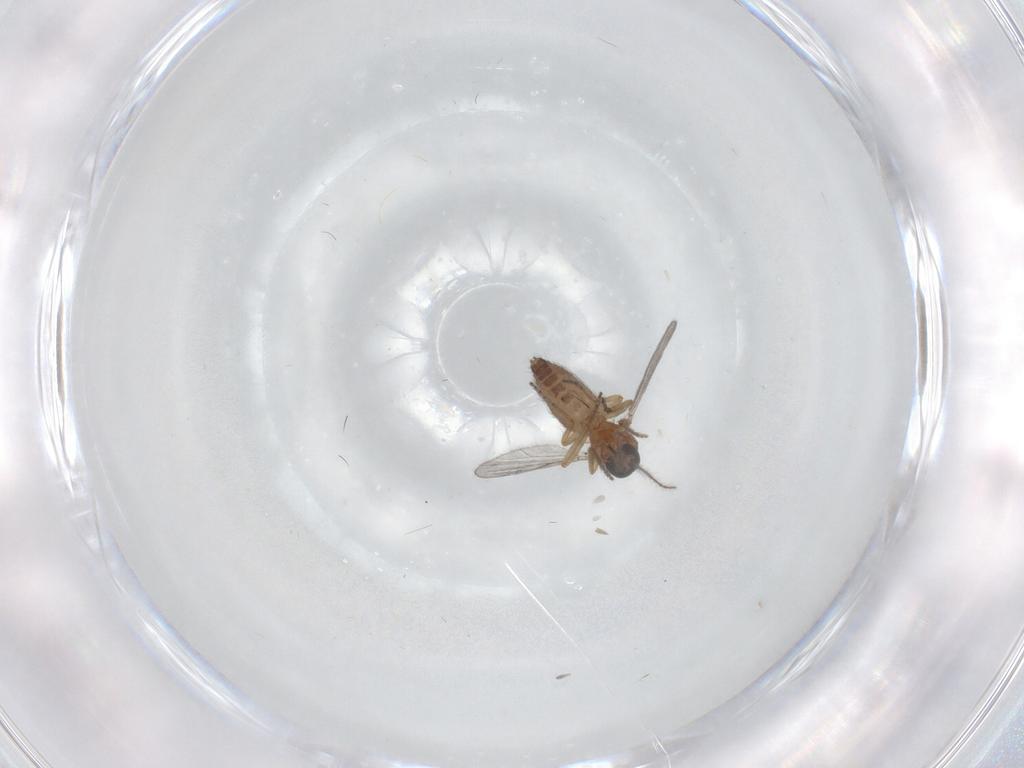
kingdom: Animalia
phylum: Arthropoda
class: Insecta
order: Diptera
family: Ceratopogonidae
